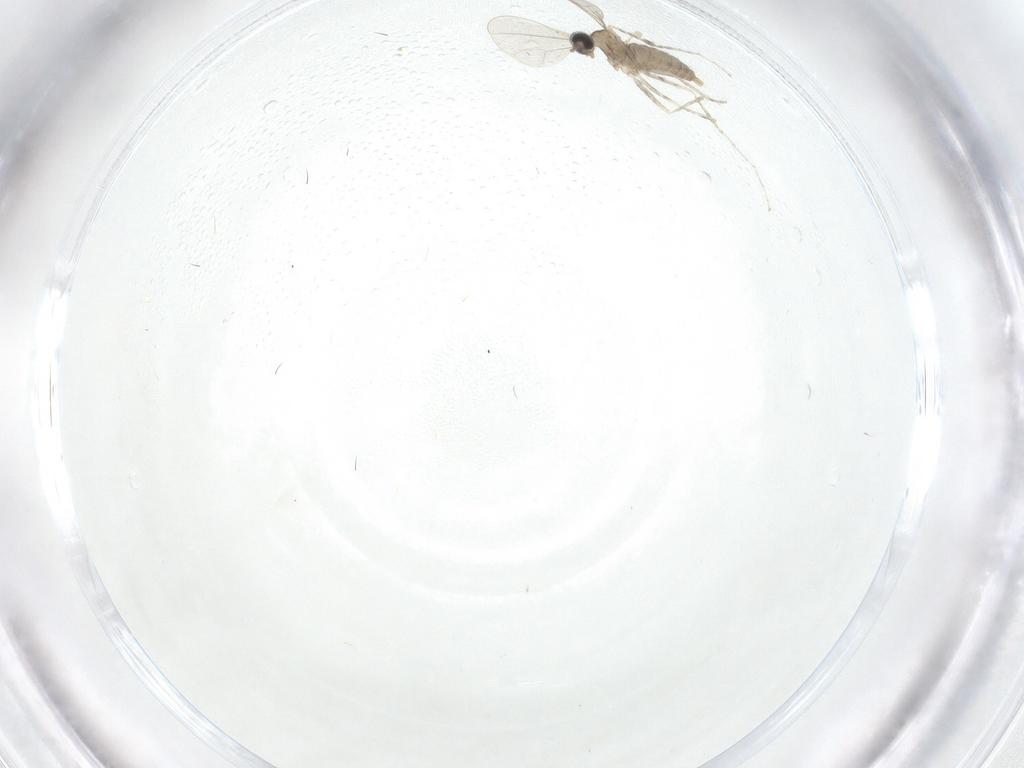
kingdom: Animalia
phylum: Arthropoda
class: Insecta
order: Diptera
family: Cecidomyiidae
